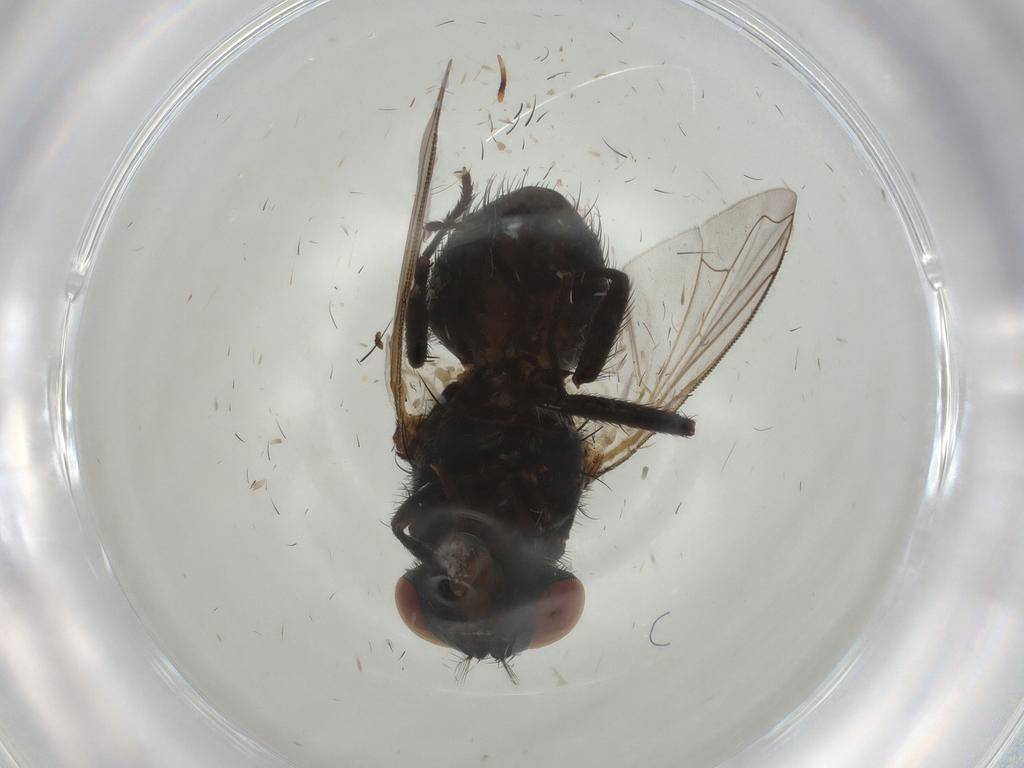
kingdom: Animalia
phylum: Arthropoda
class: Insecta
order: Diptera
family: Muscidae
